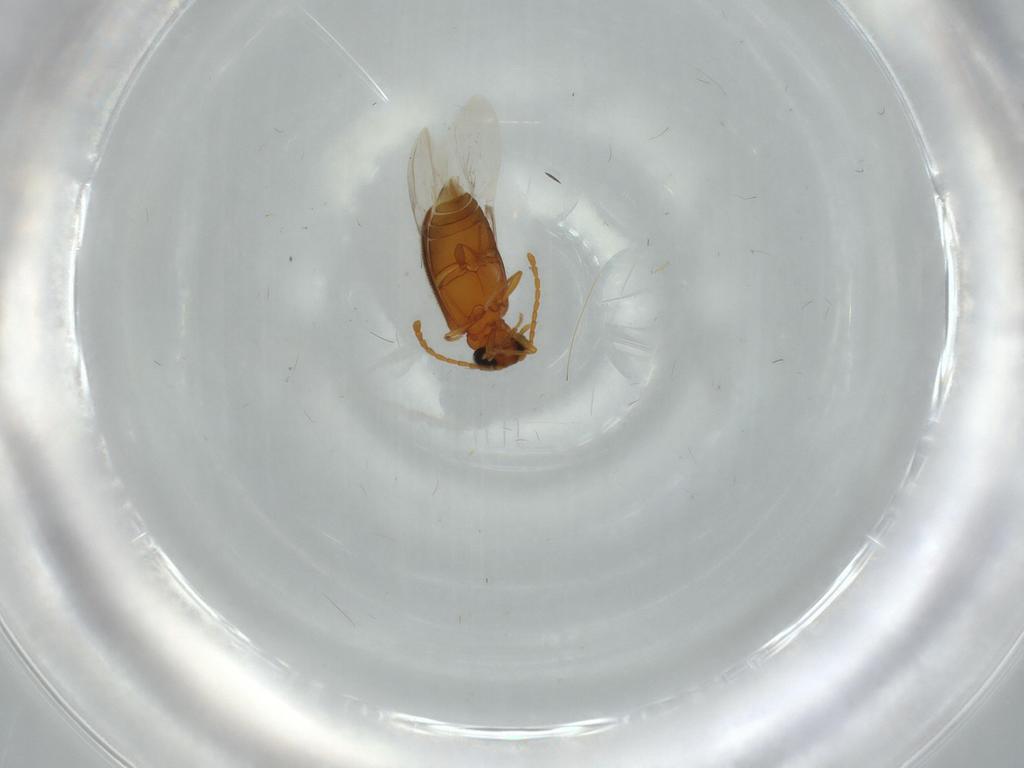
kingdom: Animalia
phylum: Arthropoda
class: Insecta
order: Coleoptera
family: Bostrichidae
